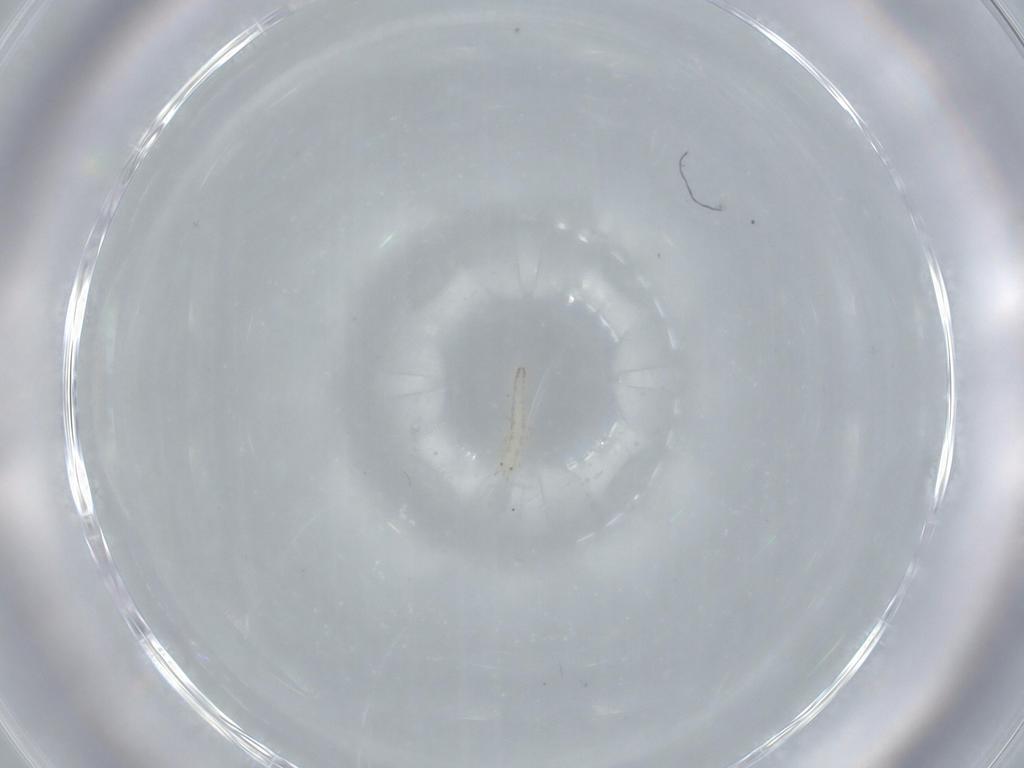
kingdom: Animalia
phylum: Arthropoda
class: Insecta
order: Neuroptera
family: Mantispidae
